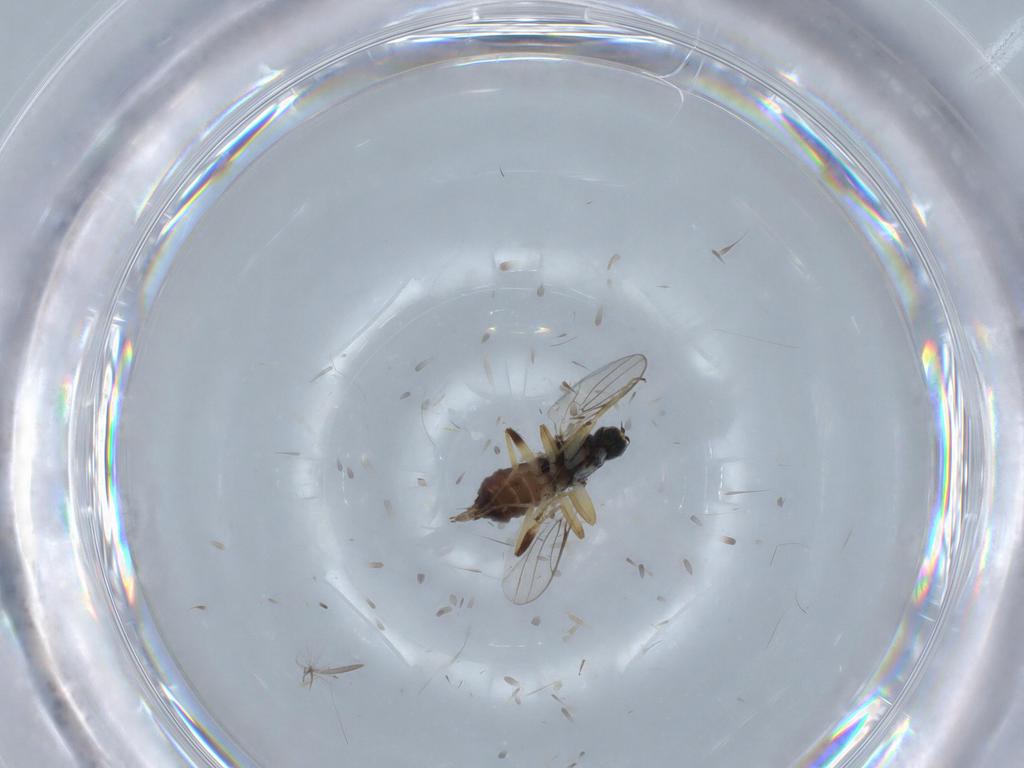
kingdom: Animalia
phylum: Arthropoda
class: Insecta
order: Diptera
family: Hybotidae
